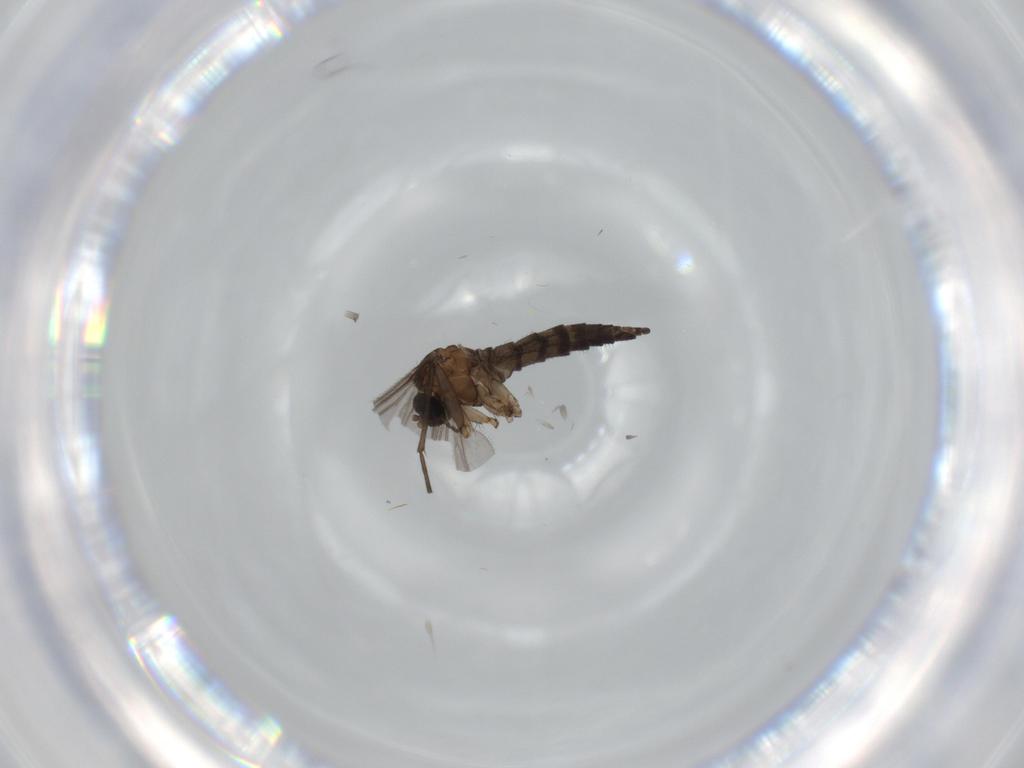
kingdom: Animalia
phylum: Arthropoda
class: Insecta
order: Diptera
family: Sciaridae
